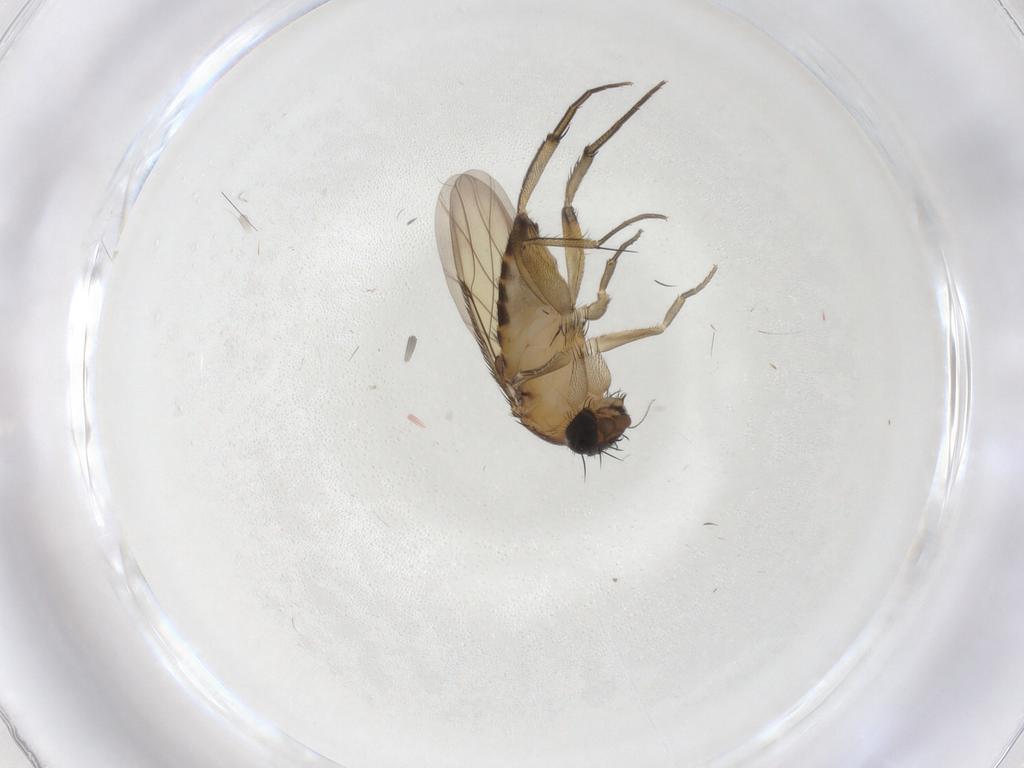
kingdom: Animalia
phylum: Arthropoda
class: Insecta
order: Diptera
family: Phoridae
